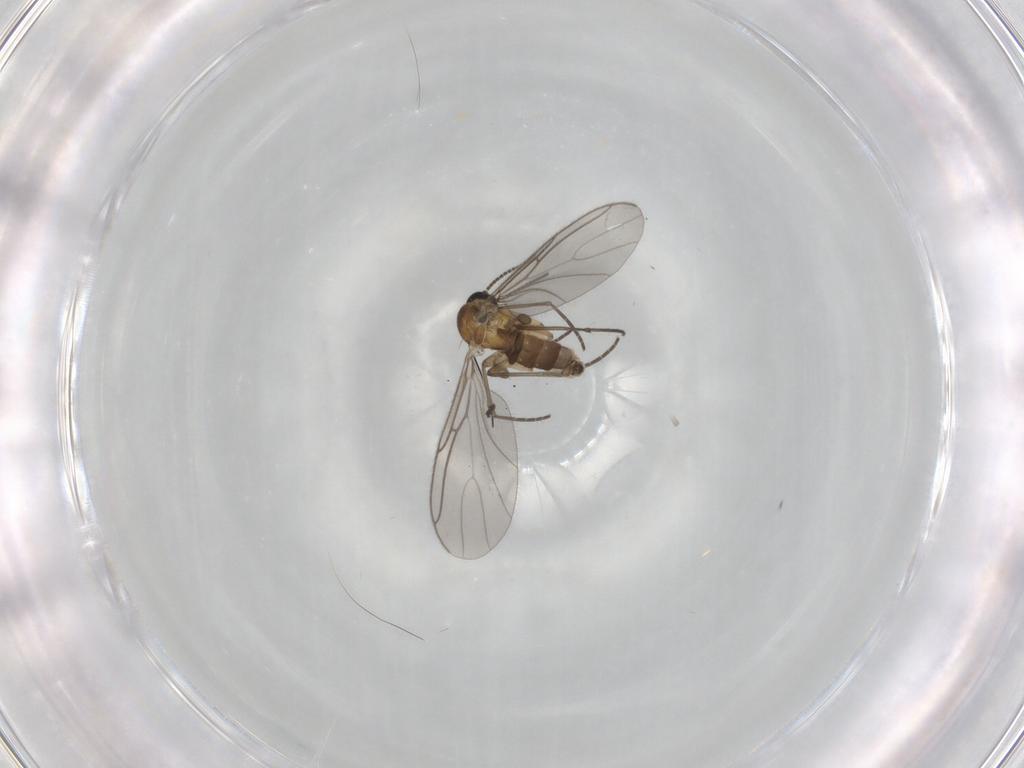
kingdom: Animalia
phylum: Arthropoda
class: Insecta
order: Diptera
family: Sciaridae
